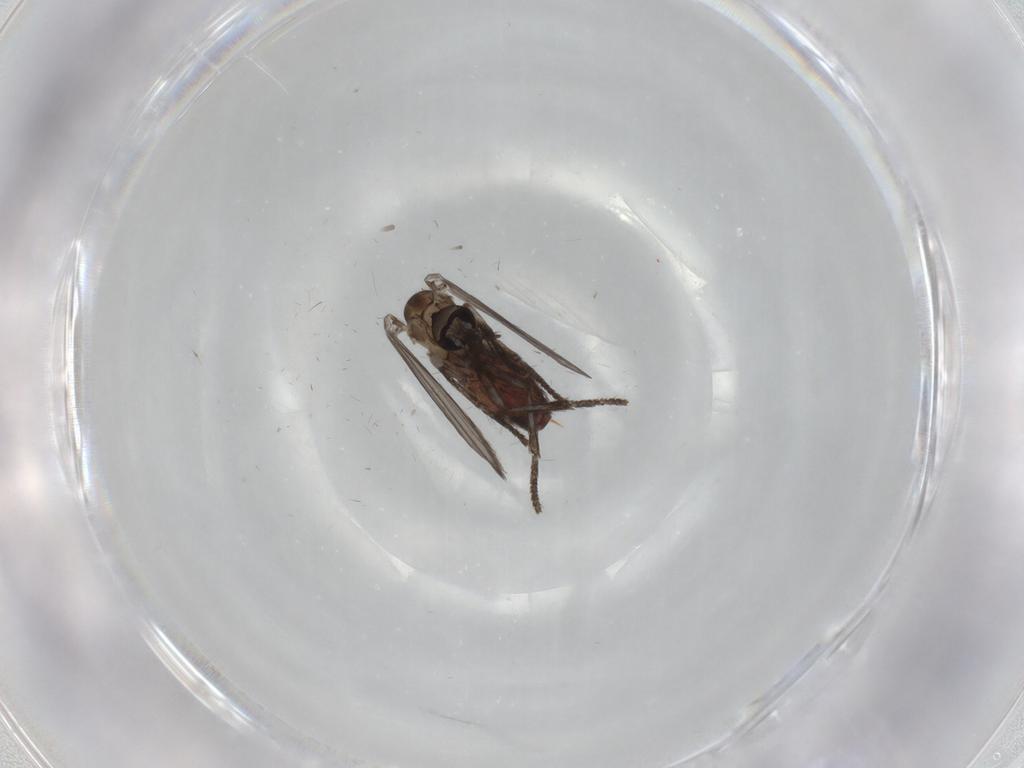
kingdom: Animalia
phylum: Arthropoda
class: Insecta
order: Diptera
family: Psychodidae
